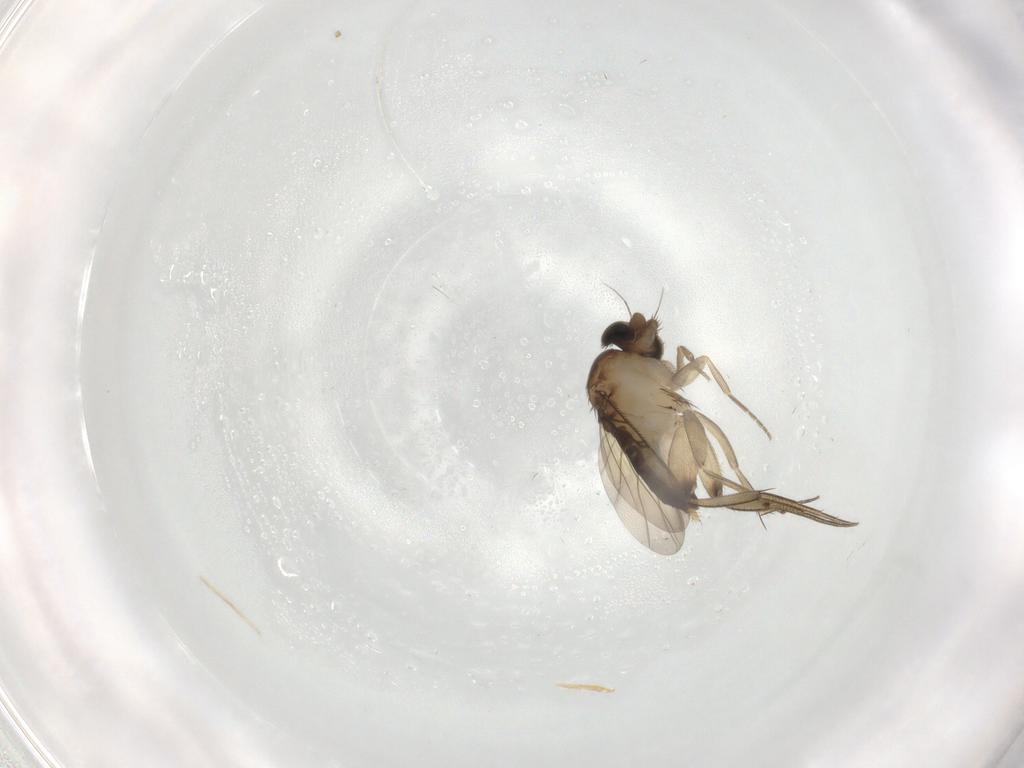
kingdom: Animalia
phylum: Arthropoda
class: Insecta
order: Diptera
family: Phoridae
